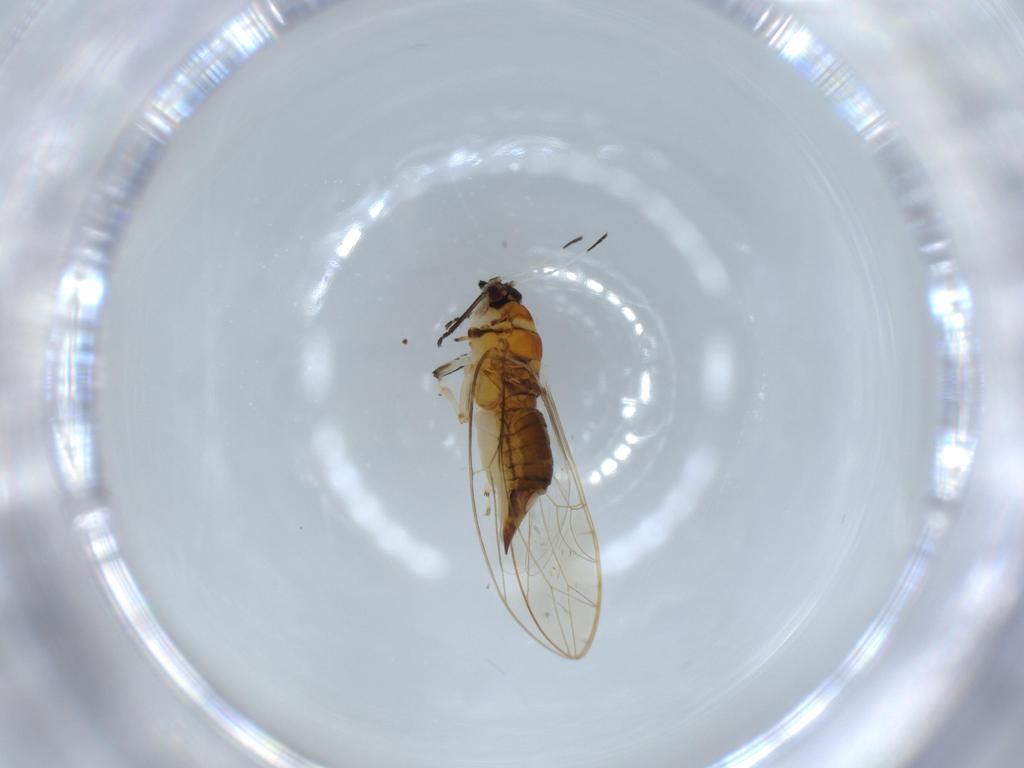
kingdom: Animalia
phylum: Arthropoda
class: Insecta
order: Hemiptera
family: Triozidae
